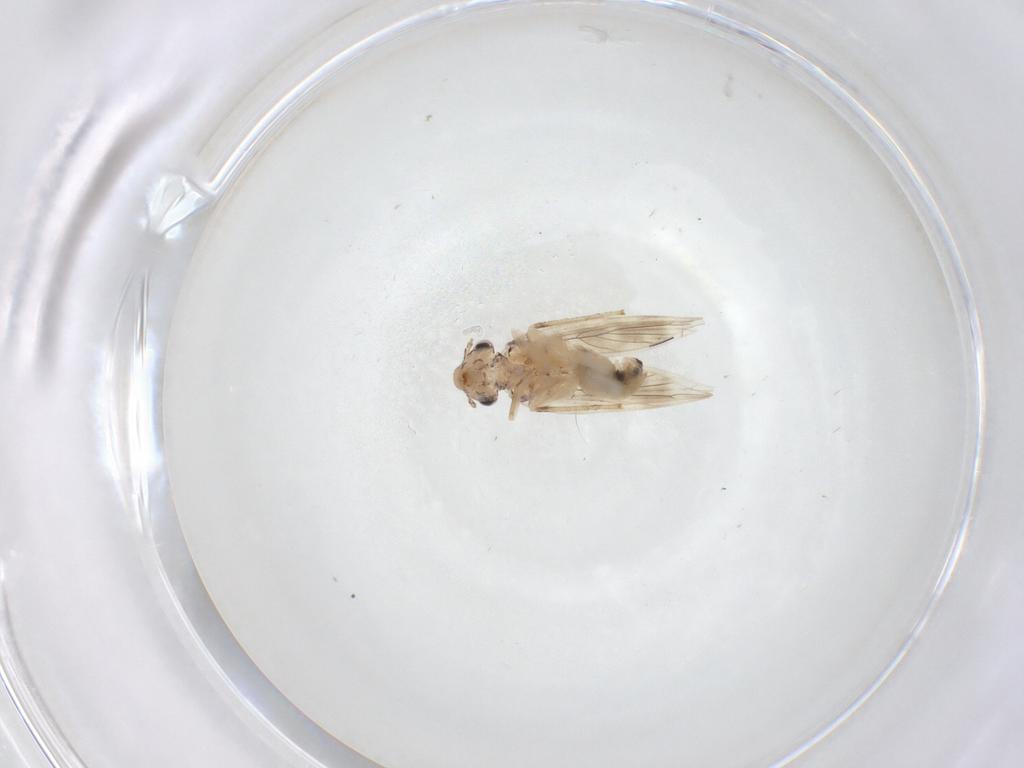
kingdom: Animalia
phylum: Arthropoda
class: Insecta
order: Psocodea
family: Lepidopsocidae
